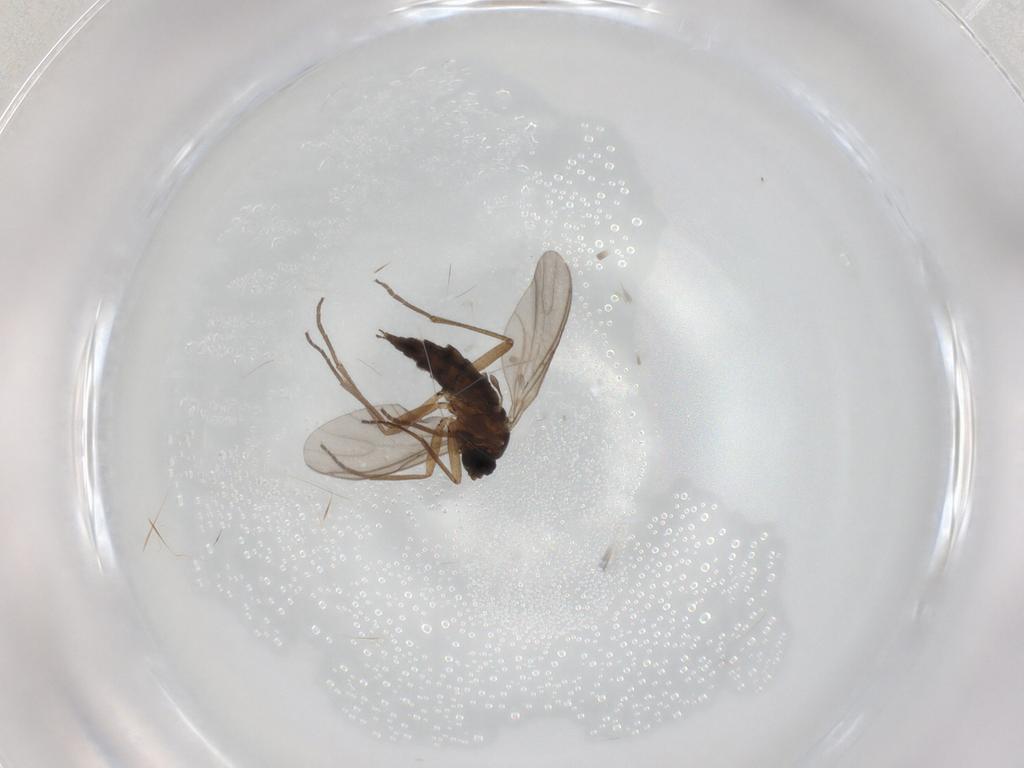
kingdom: Animalia
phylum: Arthropoda
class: Insecta
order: Diptera
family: Sciaridae
